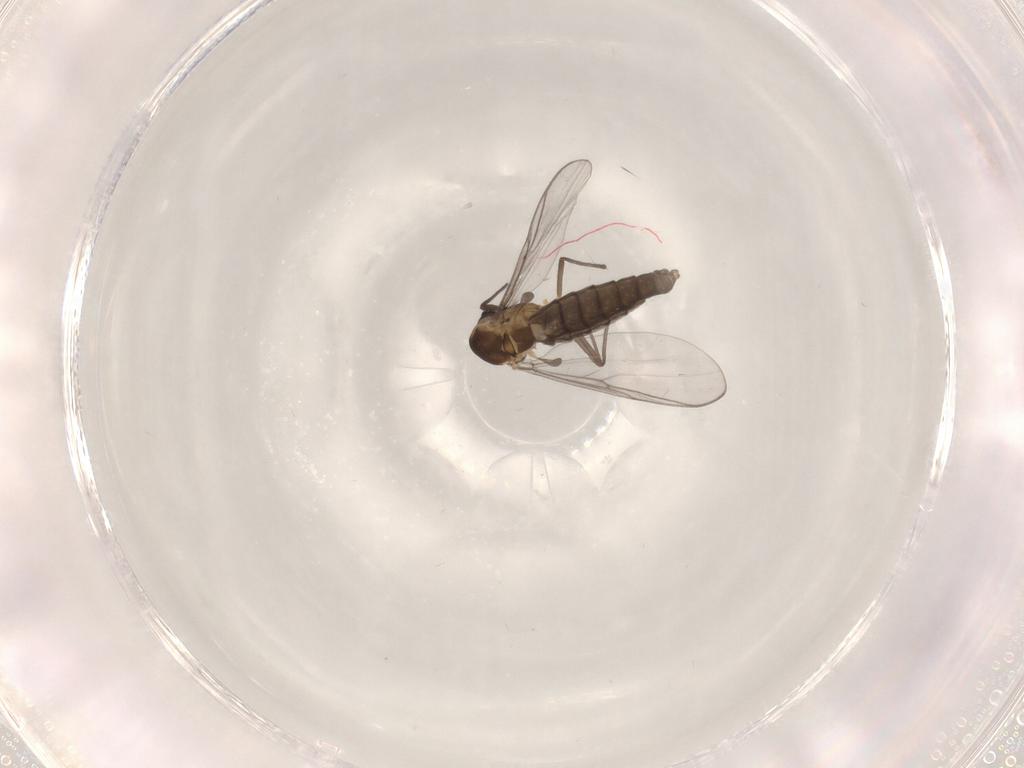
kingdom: Animalia
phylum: Arthropoda
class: Insecta
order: Diptera
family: Chironomidae
